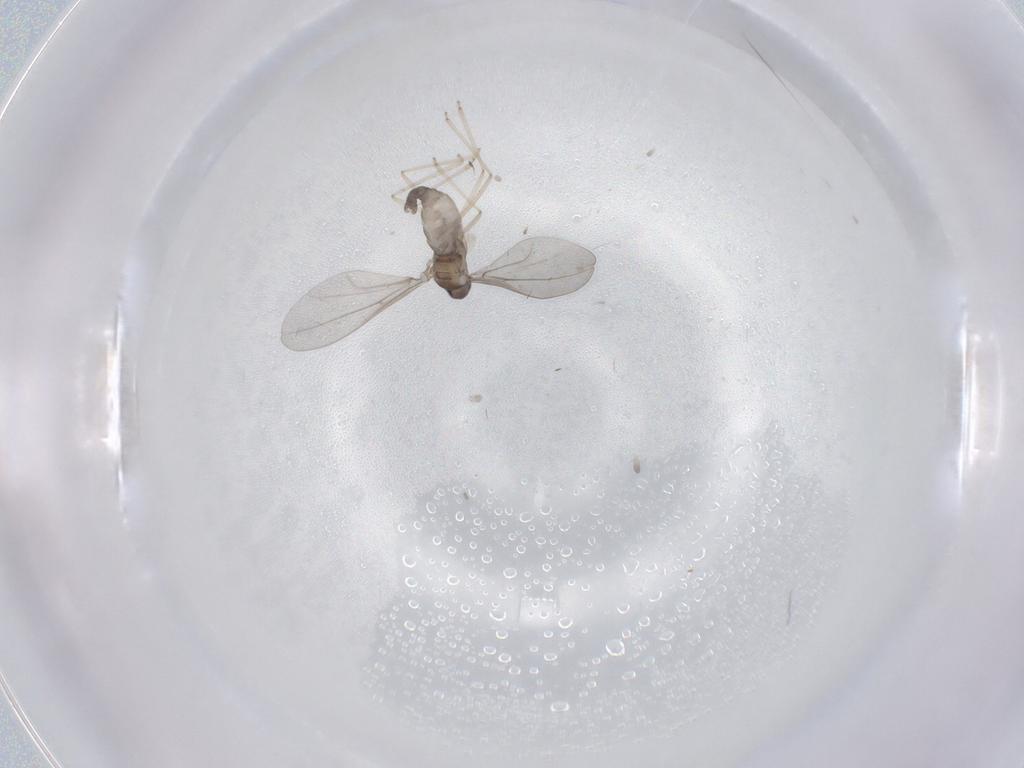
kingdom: Animalia
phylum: Arthropoda
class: Insecta
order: Diptera
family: Cecidomyiidae
